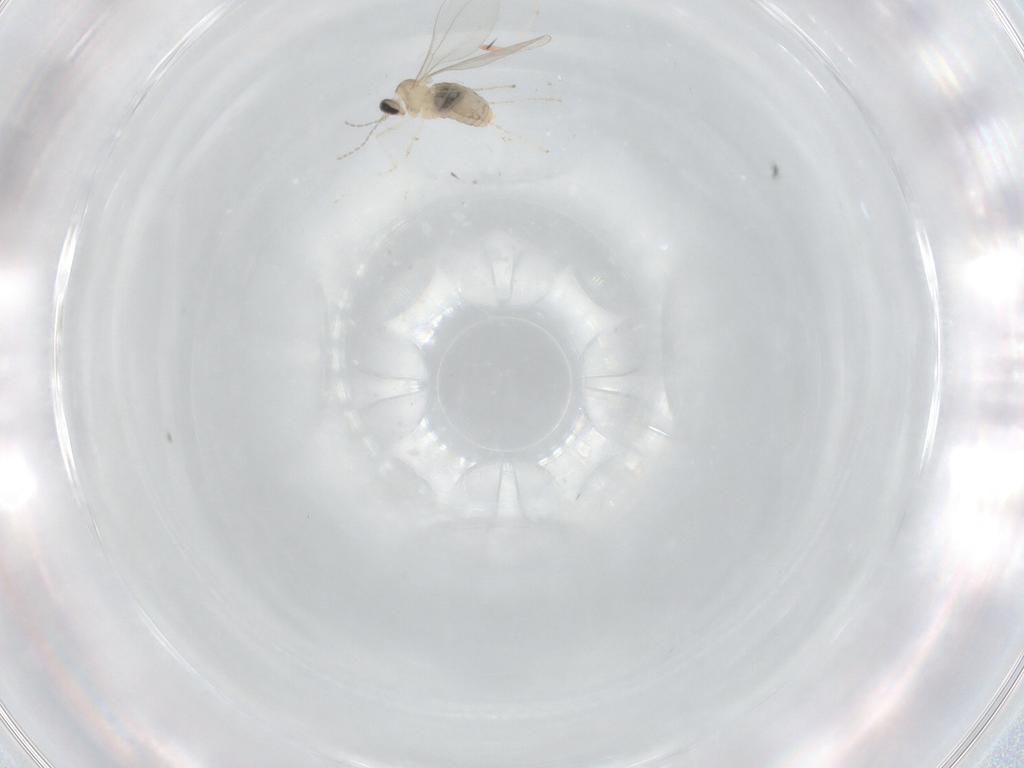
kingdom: Animalia
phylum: Arthropoda
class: Insecta
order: Diptera
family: Cecidomyiidae
